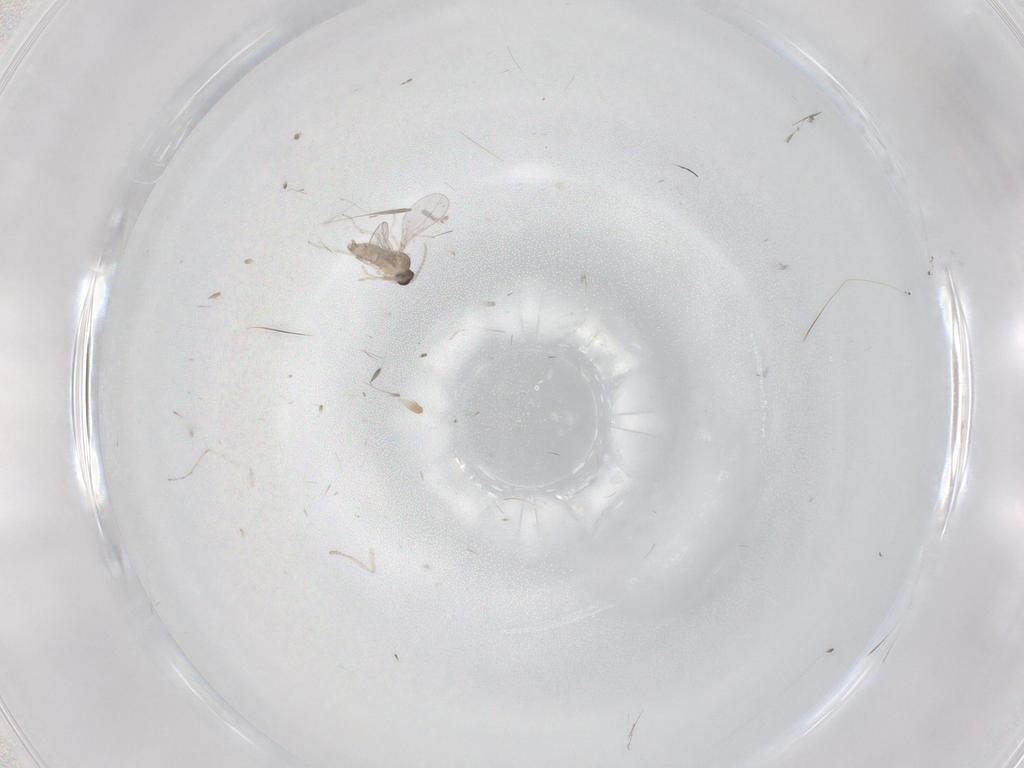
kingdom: Animalia
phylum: Arthropoda
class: Insecta
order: Diptera
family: Cecidomyiidae
